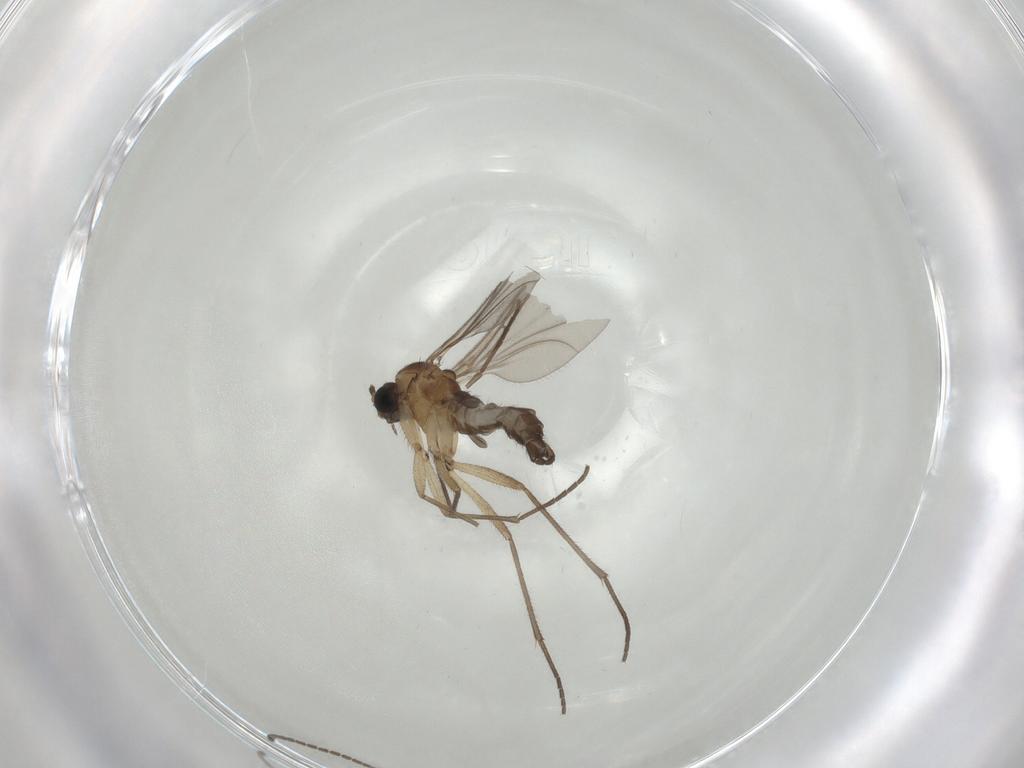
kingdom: Animalia
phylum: Arthropoda
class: Insecta
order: Diptera
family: Sciaridae
